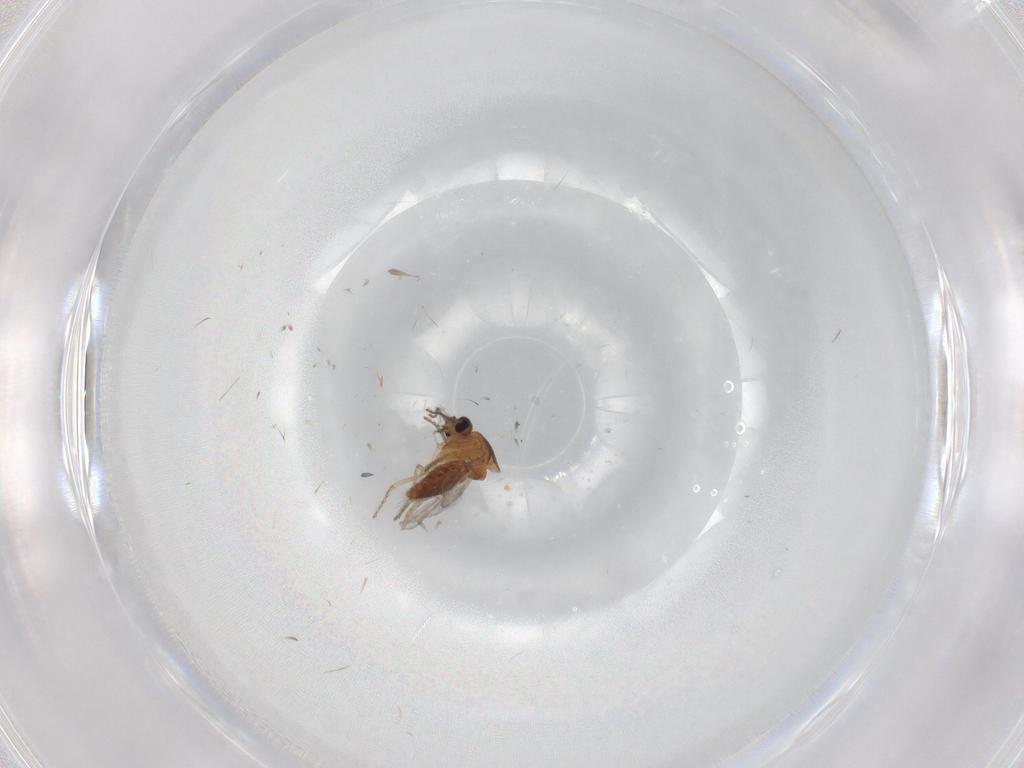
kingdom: Animalia
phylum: Arthropoda
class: Insecta
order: Diptera
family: Ceratopogonidae
